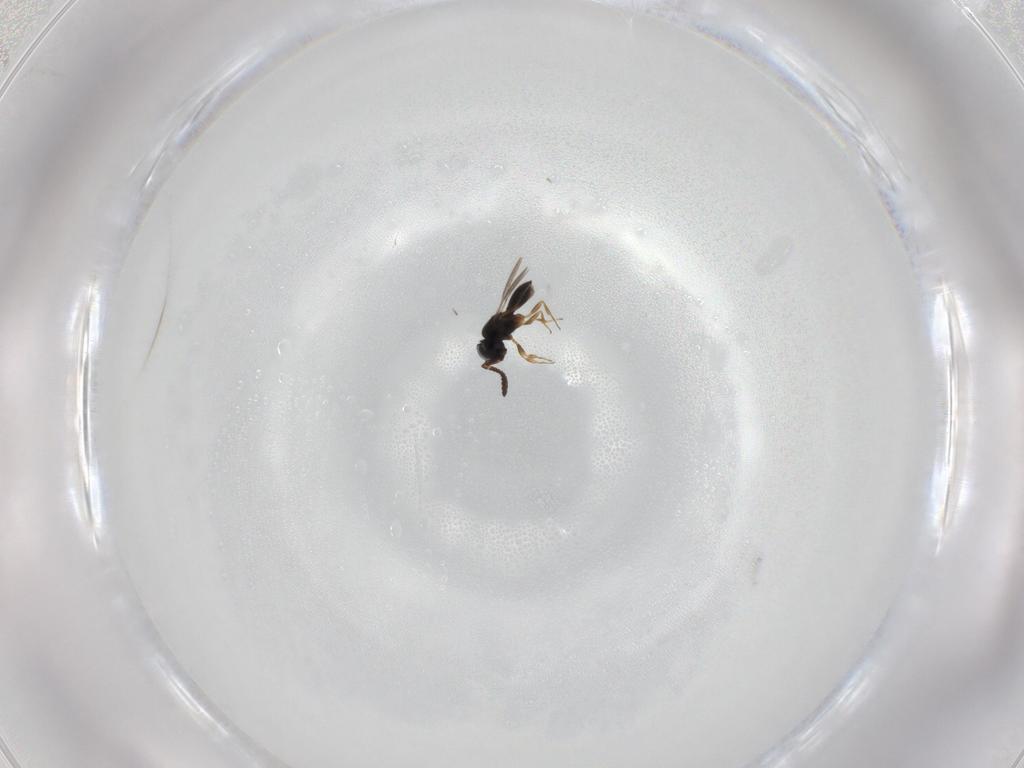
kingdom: Animalia
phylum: Arthropoda
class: Insecta
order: Hymenoptera
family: Scelionidae
